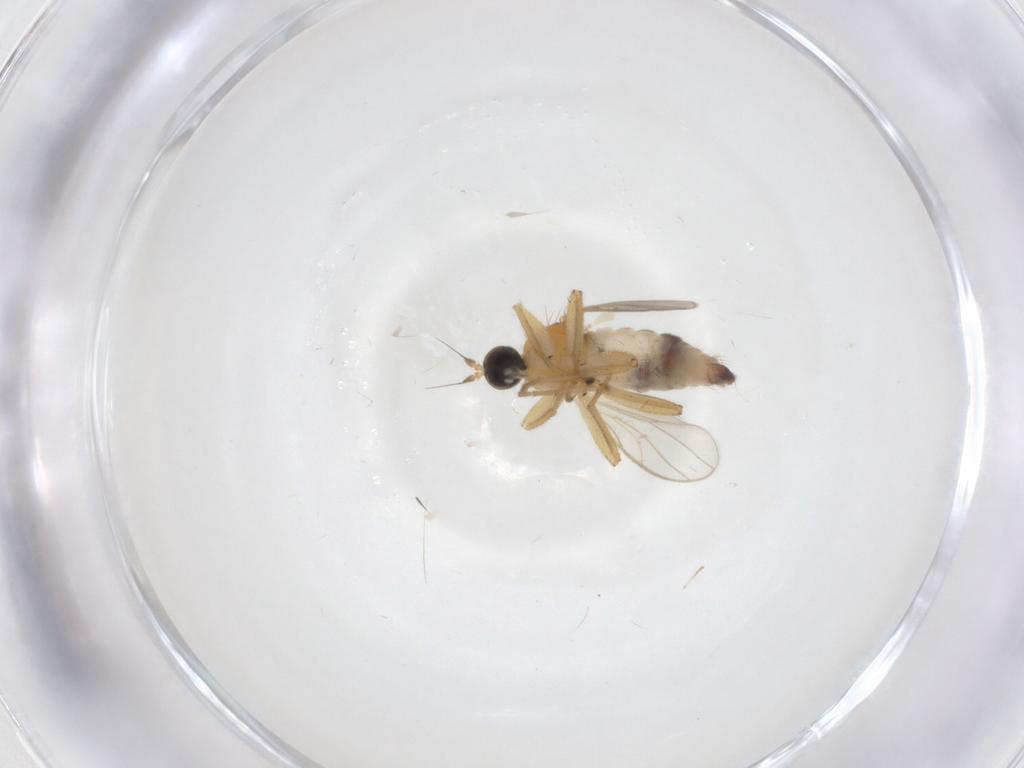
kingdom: Animalia
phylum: Arthropoda
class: Insecta
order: Diptera
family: Hybotidae
